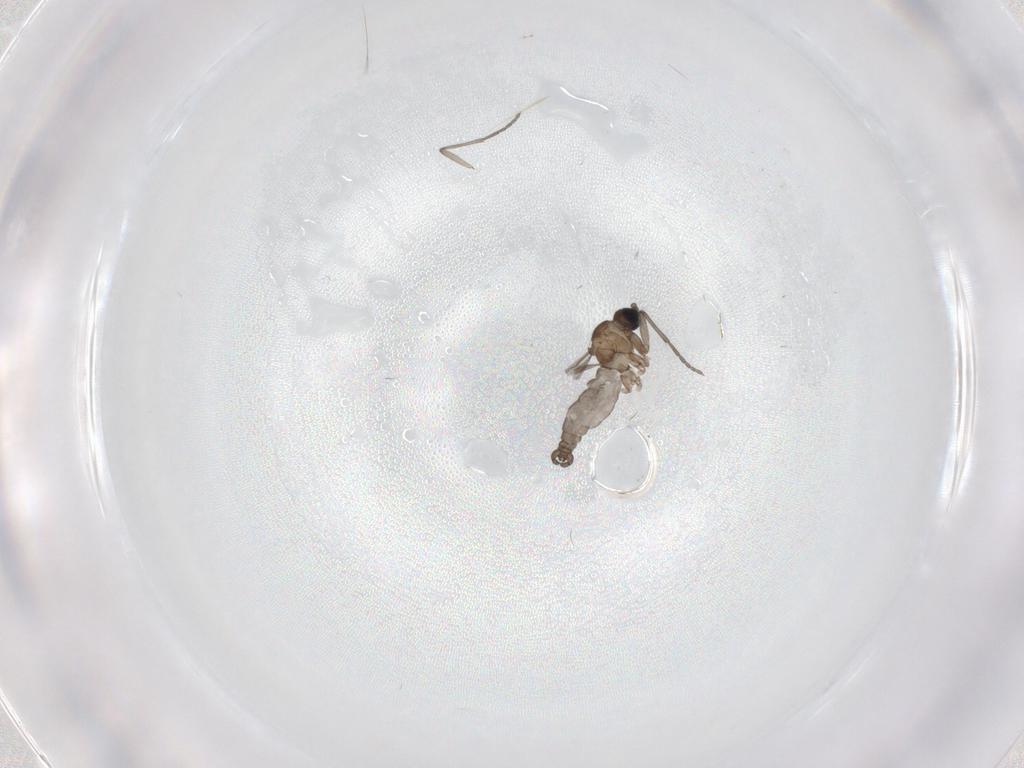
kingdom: Animalia
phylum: Arthropoda
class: Insecta
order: Diptera
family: Sciaridae
